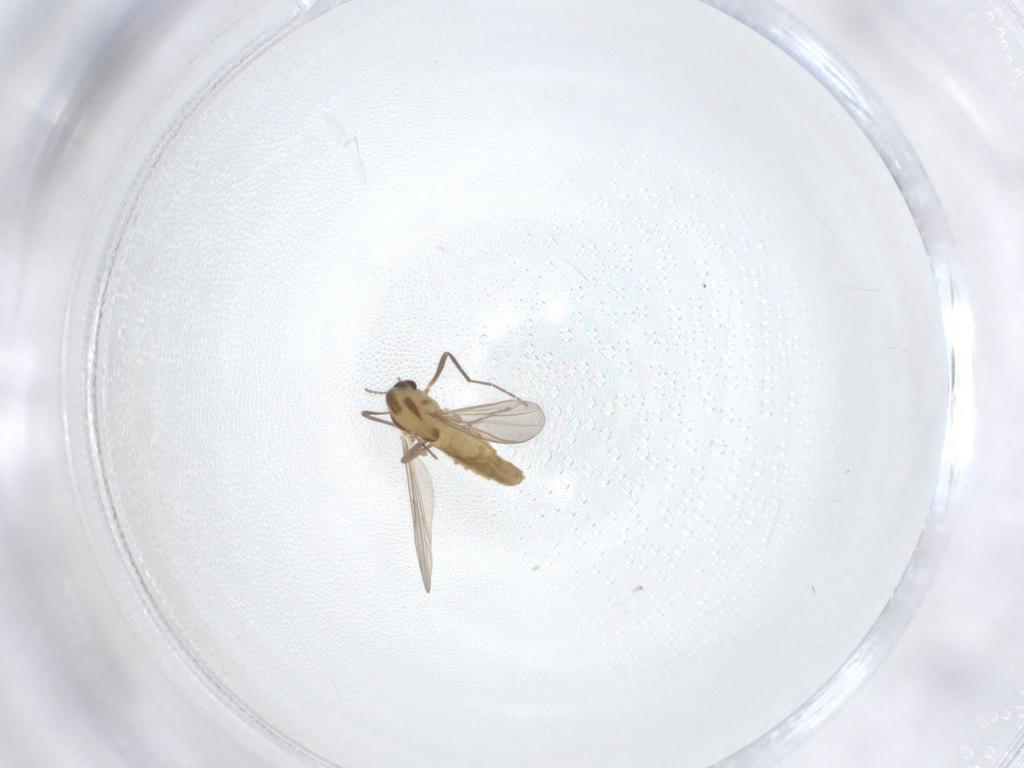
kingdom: Animalia
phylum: Arthropoda
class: Insecta
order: Diptera
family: Chironomidae
